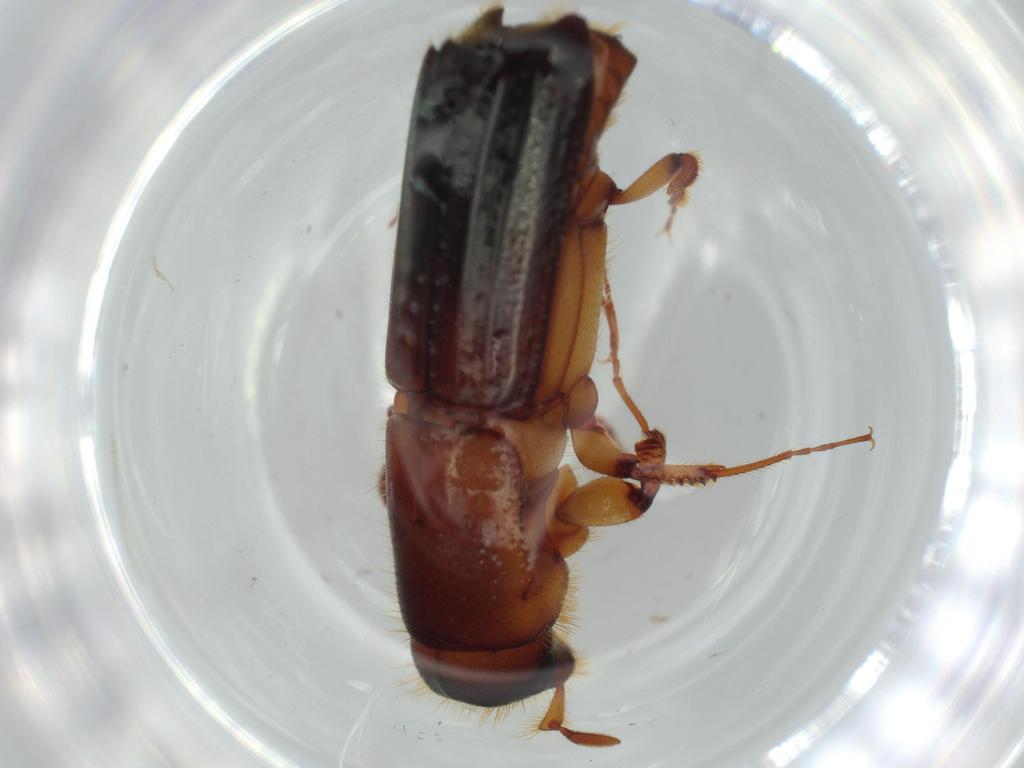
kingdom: Animalia
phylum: Arthropoda
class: Insecta
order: Coleoptera
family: Curculionidae
